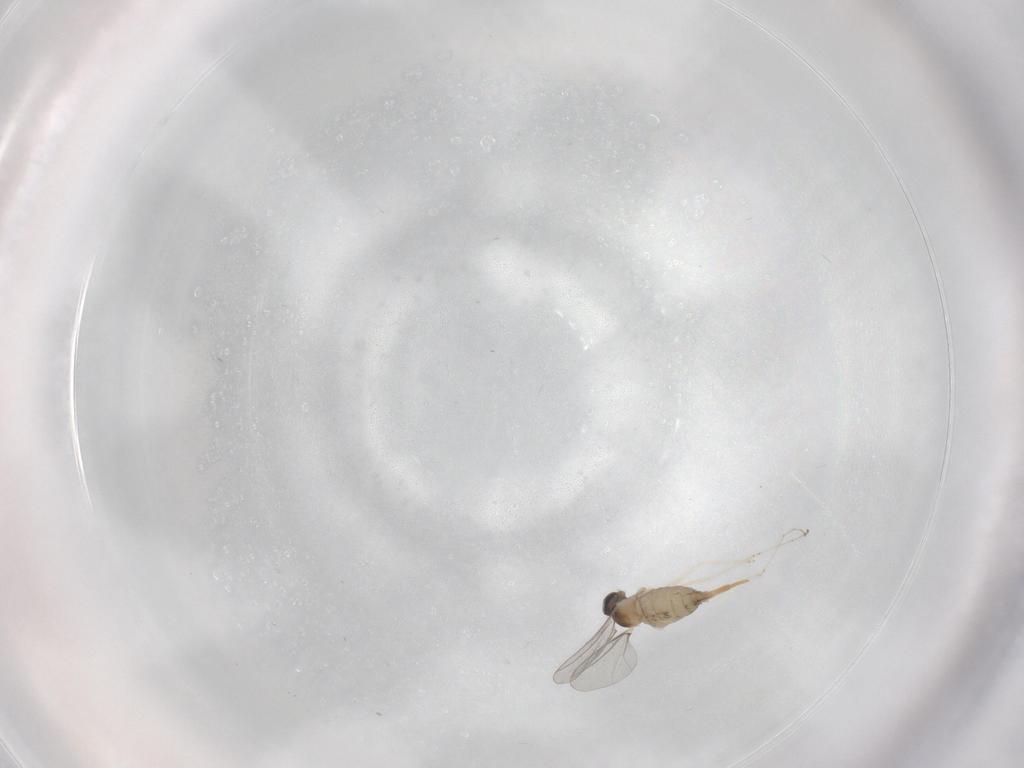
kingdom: Animalia
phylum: Arthropoda
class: Insecta
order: Diptera
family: Cecidomyiidae
